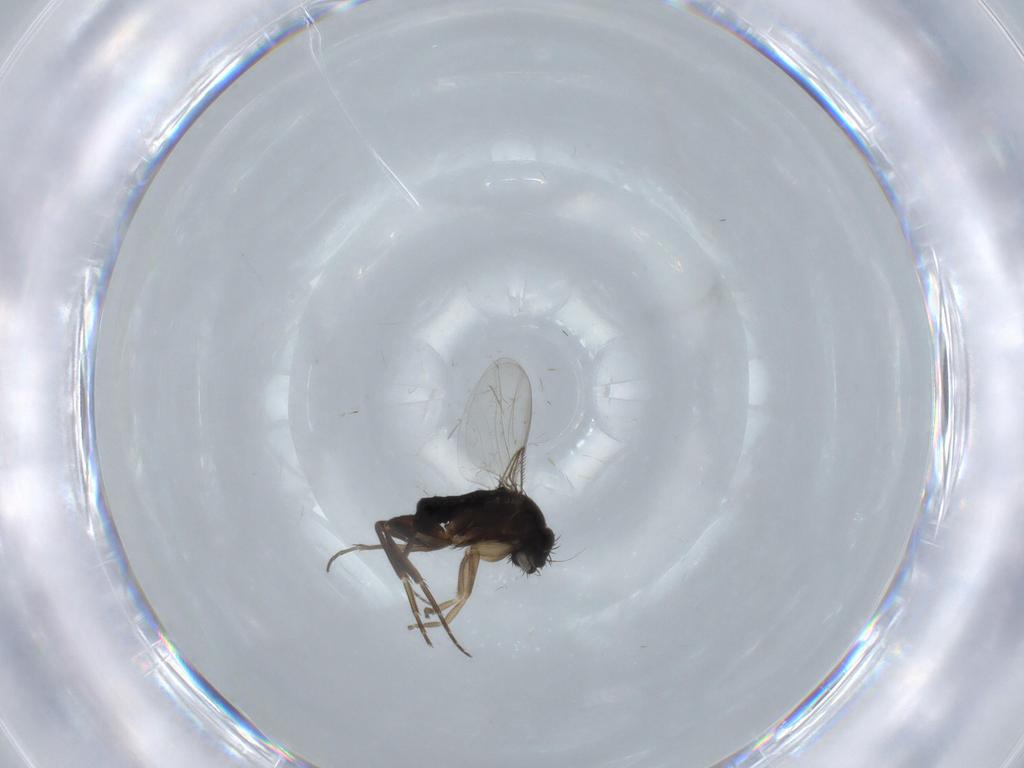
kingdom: Animalia
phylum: Arthropoda
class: Insecta
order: Diptera
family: Phoridae
